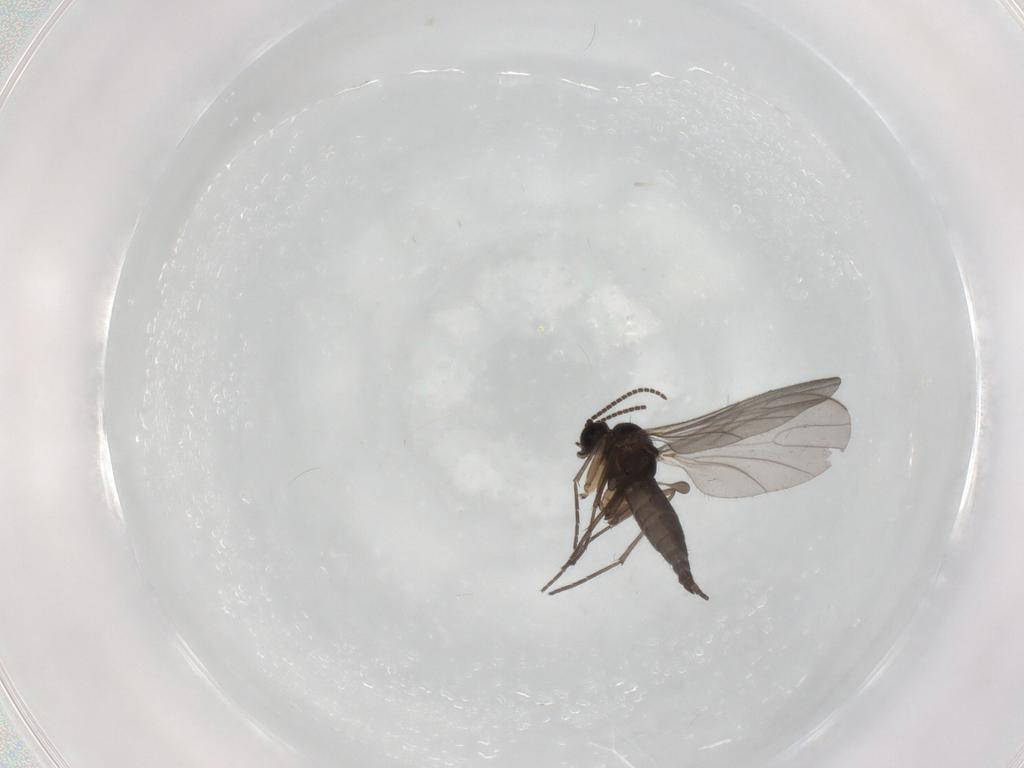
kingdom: Animalia
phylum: Arthropoda
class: Insecta
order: Diptera
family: Sciaridae
